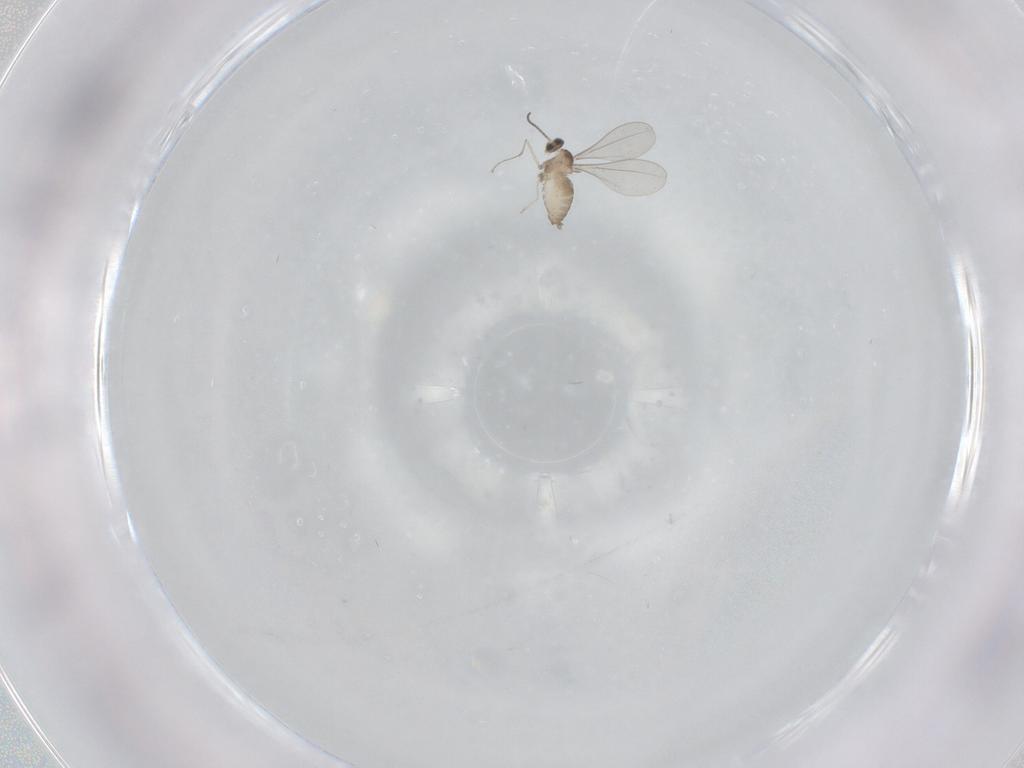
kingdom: Animalia
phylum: Arthropoda
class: Insecta
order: Diptera
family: Cecidomyiidae
